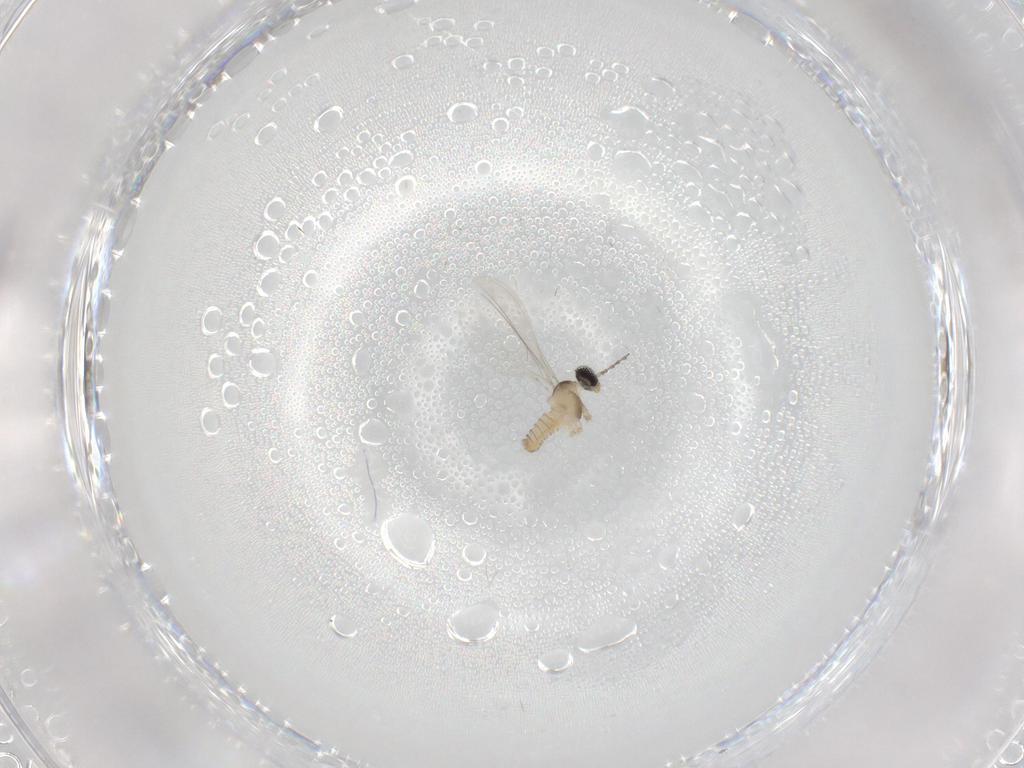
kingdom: Animalia
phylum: Arthropoda
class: Insecta
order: Diptera
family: Cecidomyiidae
